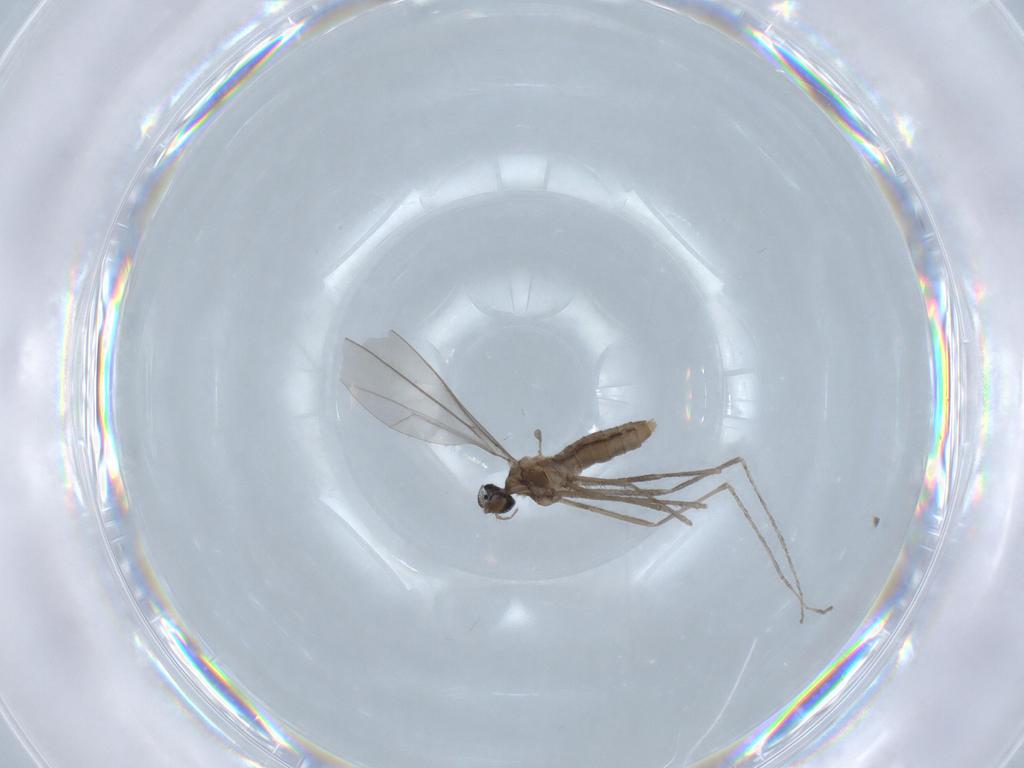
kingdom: Animalia
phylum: Arthropoda
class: Insecta
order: Diptera
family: Cecidomyiidae
